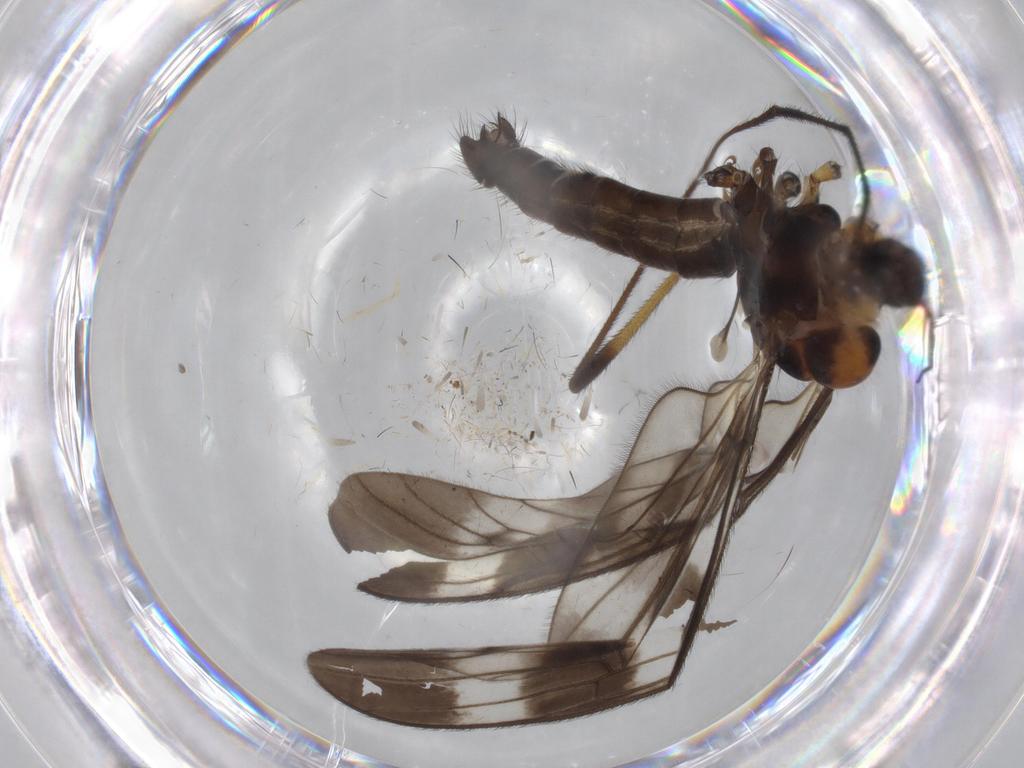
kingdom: Animalia
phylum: Arthropoda
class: Insecta
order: Diptera
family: Limoniidae
